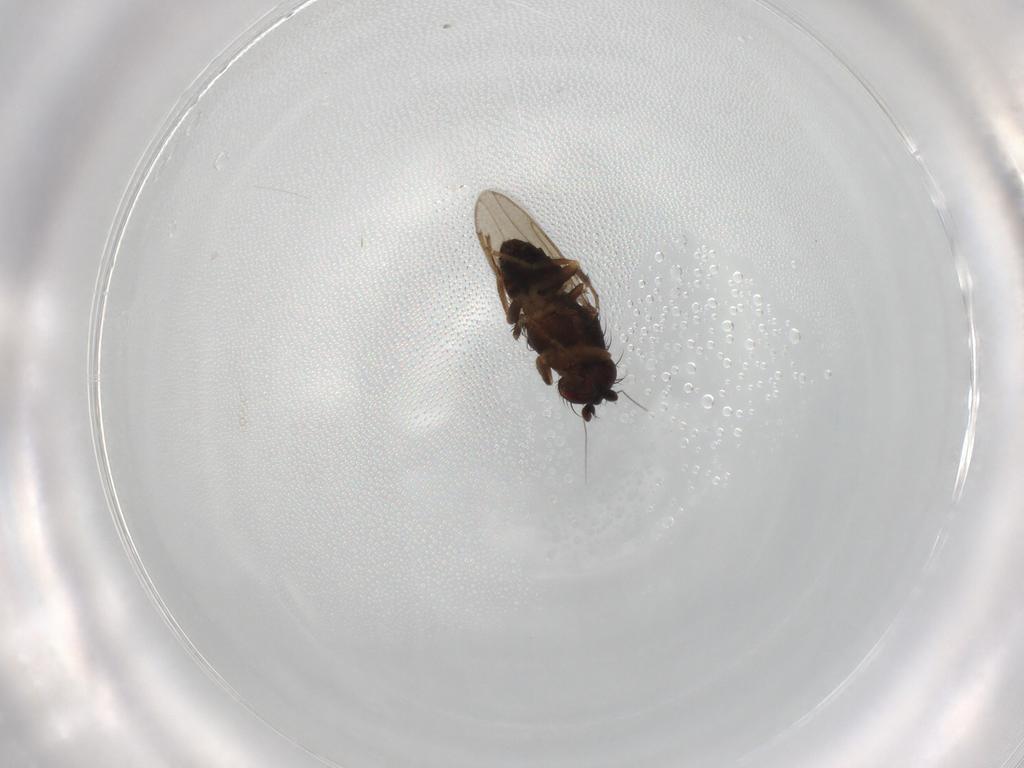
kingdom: Animalia
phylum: Arthropoda
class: Insecta
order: Diptera
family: Sphaeroceridae
